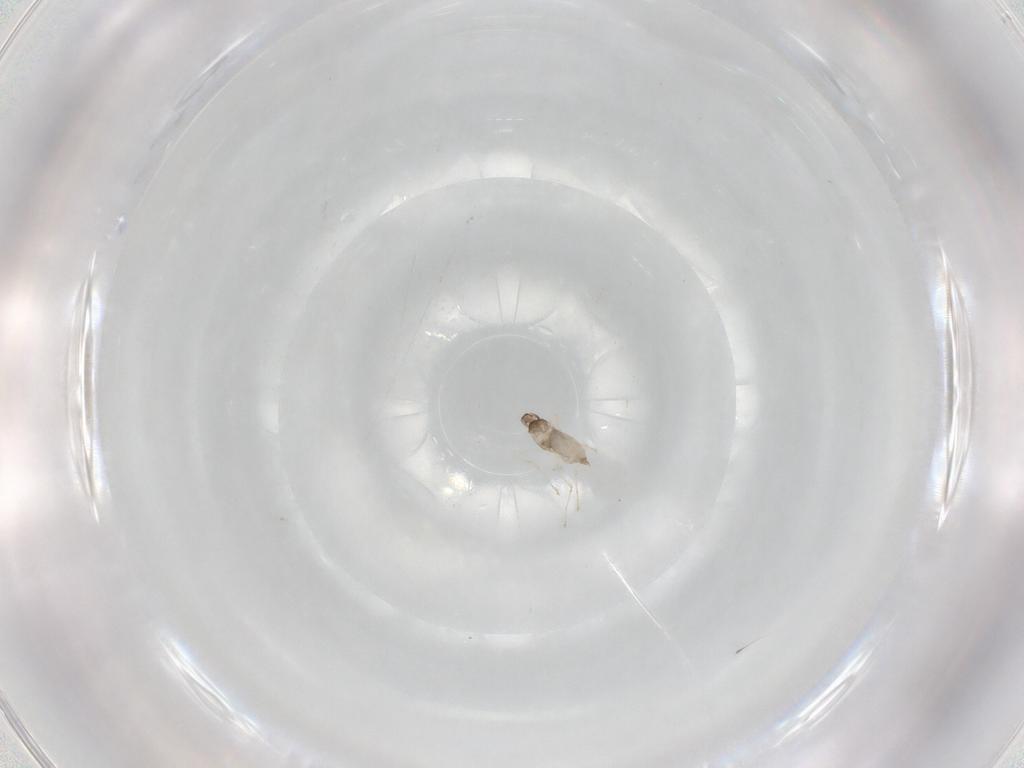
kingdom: Animalia
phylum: Arthropoda
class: Insecta
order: Diptera
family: Cecidomyiidae
